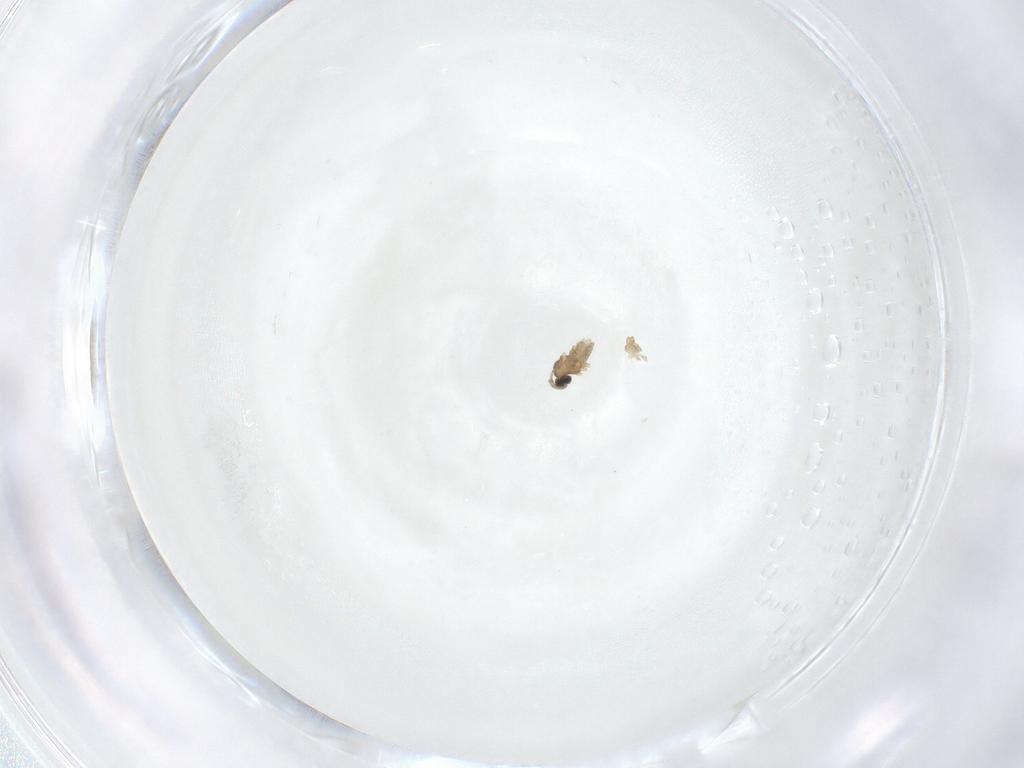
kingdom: Animalia
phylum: Arthropoda
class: Insecta
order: Diptera
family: Cecidomyiidae
